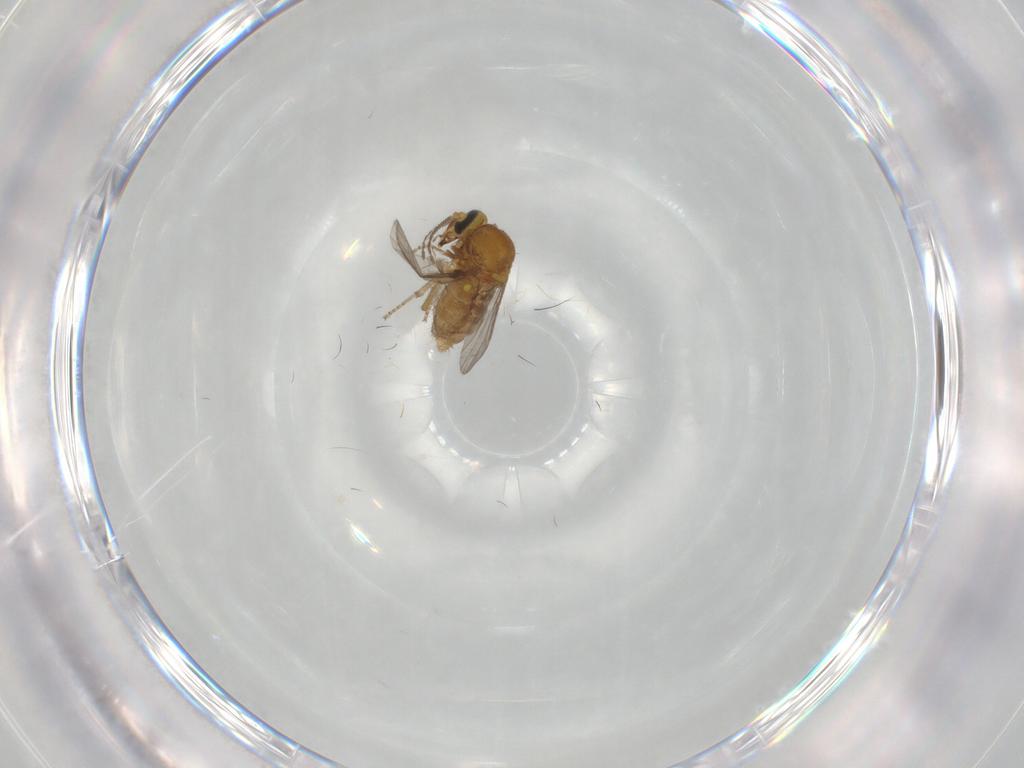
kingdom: Animalia
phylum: Arthropoda
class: Insecta
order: Diptera
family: Ceratopogonidae
